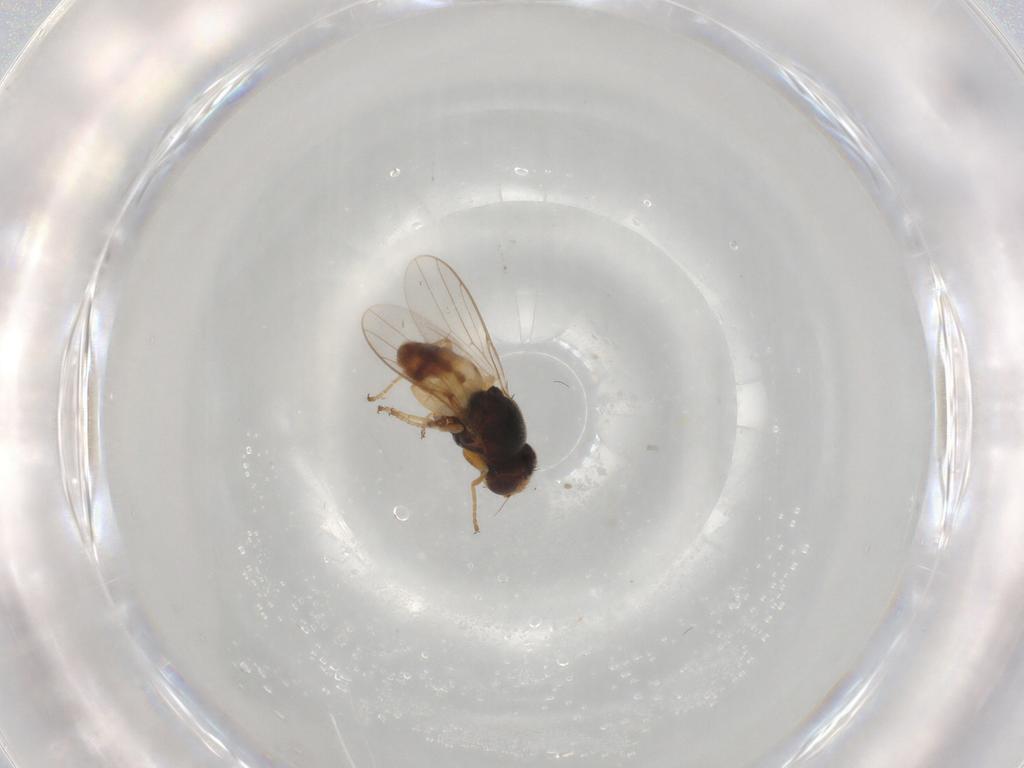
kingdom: Animalia
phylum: Arthropoda
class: Insecta
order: Diptera
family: Chloropidae
